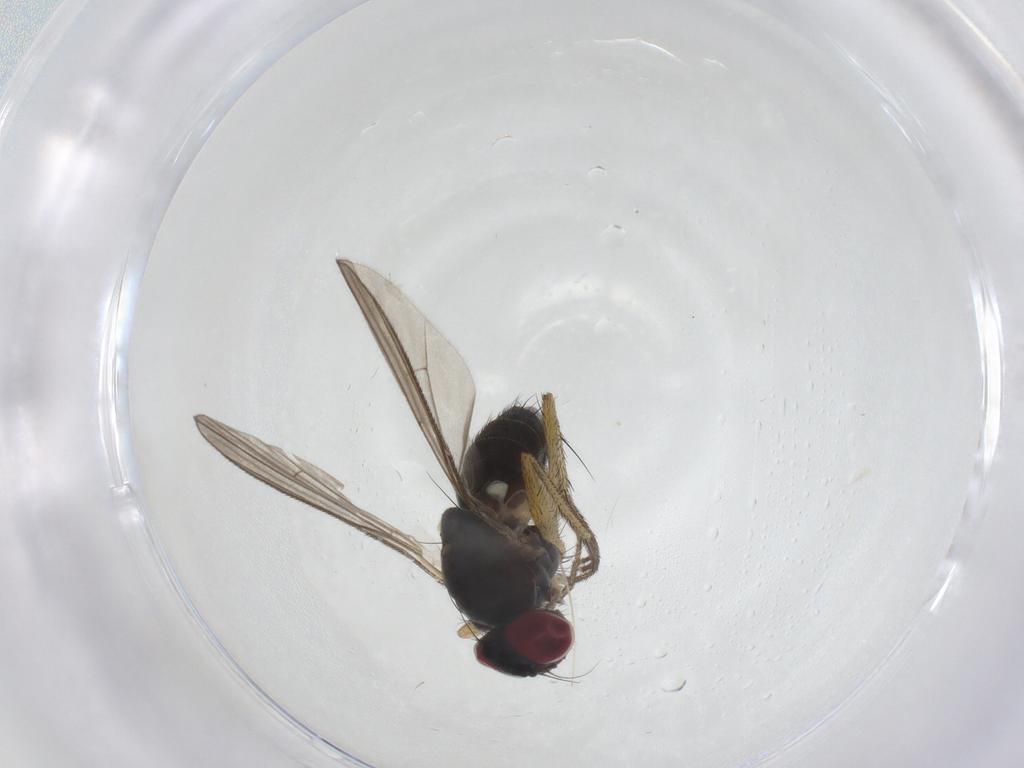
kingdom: Animalia
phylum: Arthropoda
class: Insecta
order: Diptera
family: Muscidae
